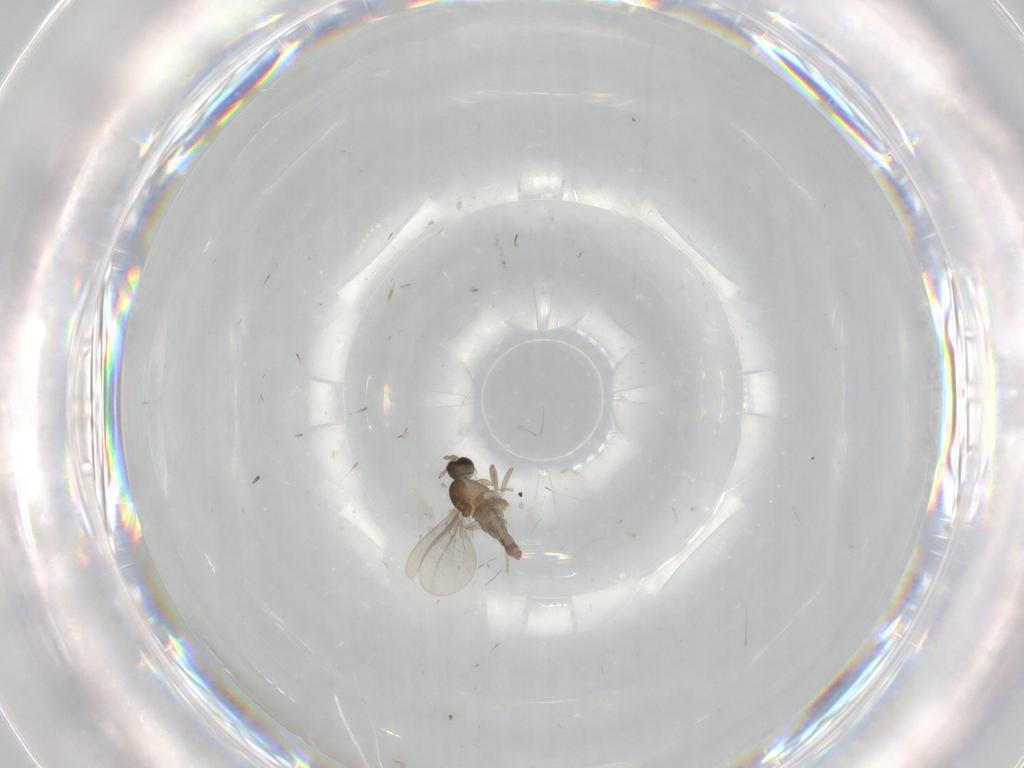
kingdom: Animalia
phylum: Arthropoda
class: Insecta
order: Diptera
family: Cecidomyiidae
